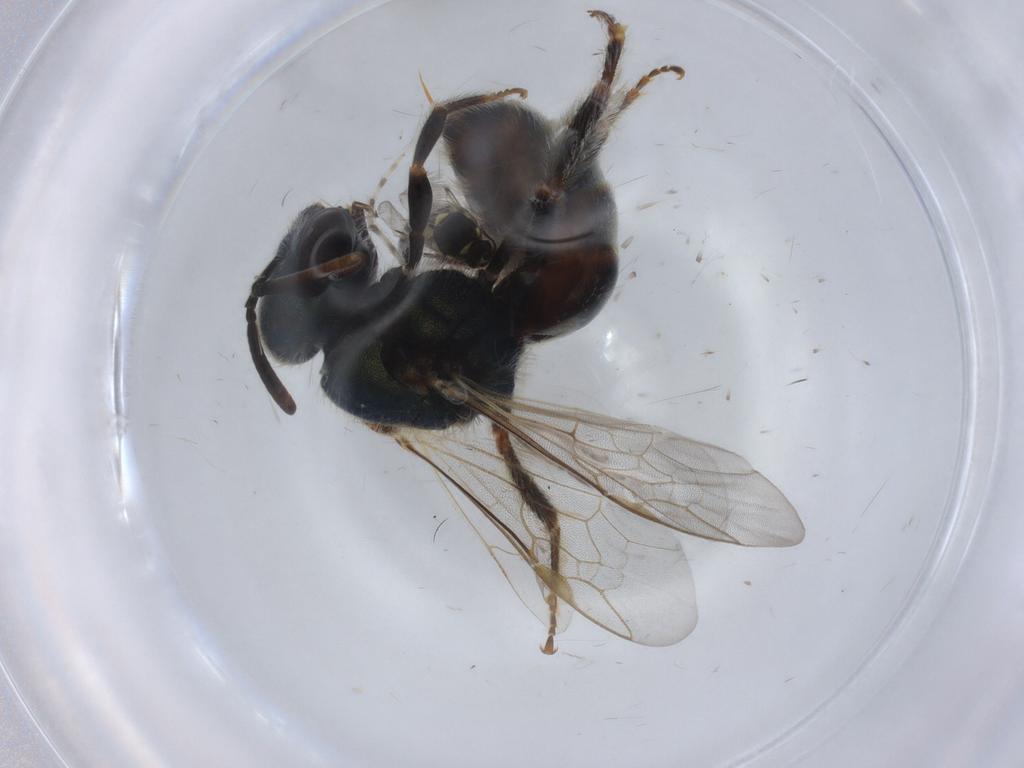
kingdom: Animalia
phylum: Arthropoda
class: Insecta
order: Hymenoptera
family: Halictidae
